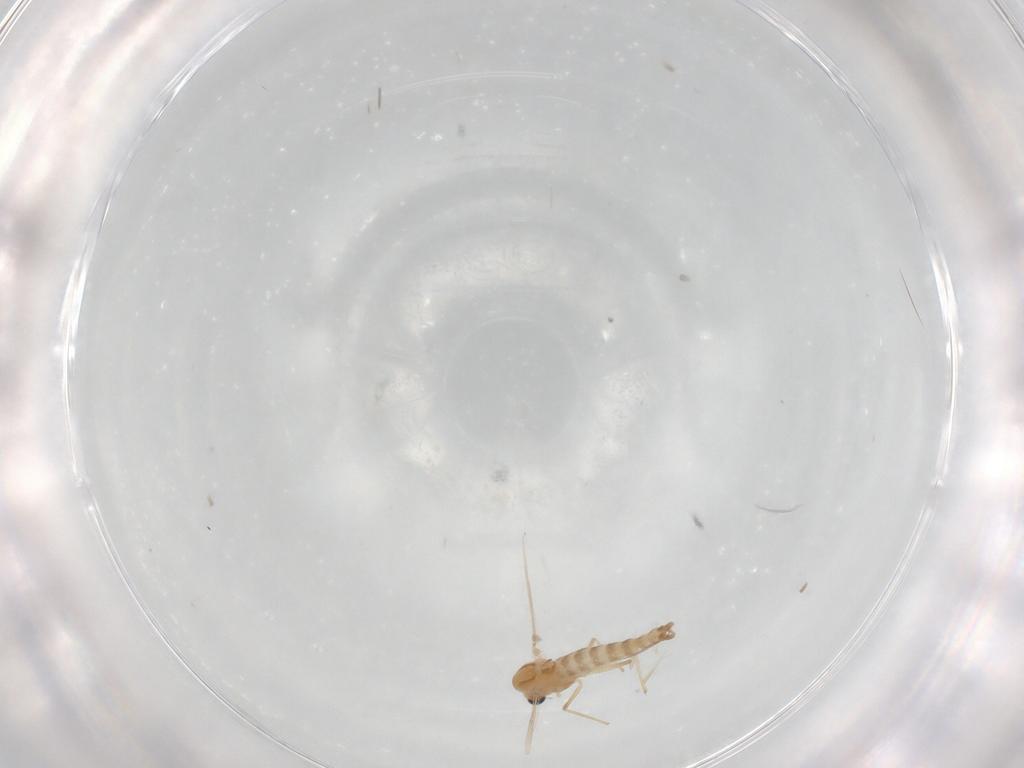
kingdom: Animalia
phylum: Arthropoda
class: Insecta
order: Diptera
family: Chironomidae
